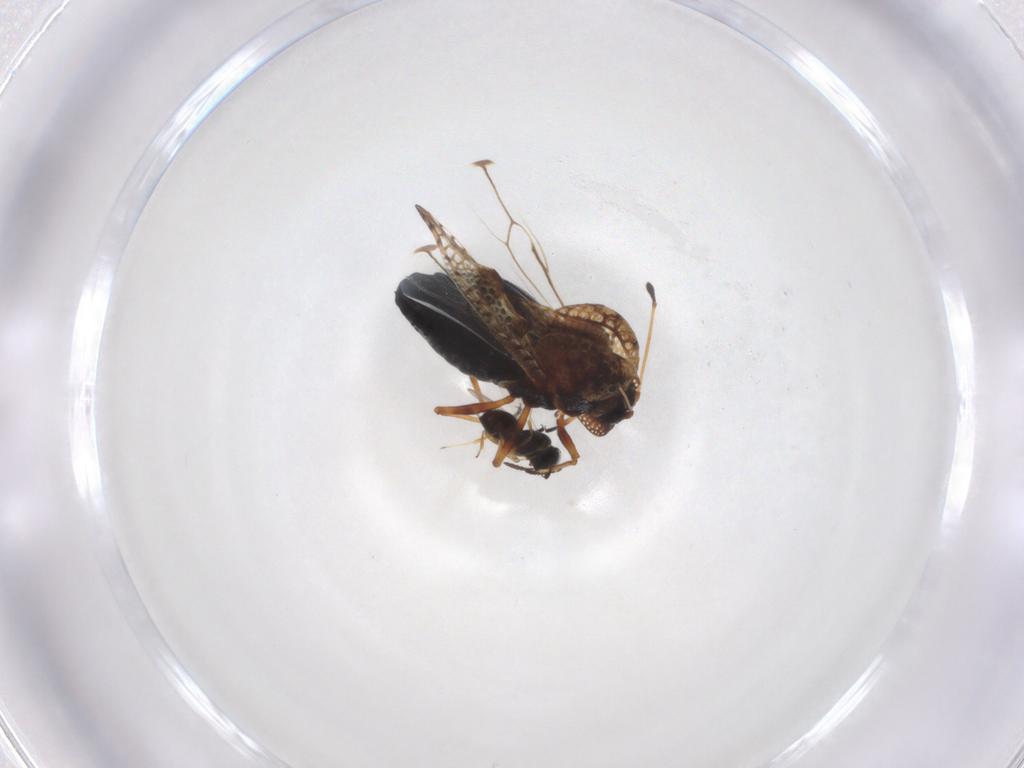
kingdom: Animalia
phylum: Arthropoda
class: Insecta
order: Hymenoptera
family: Scelionidae
